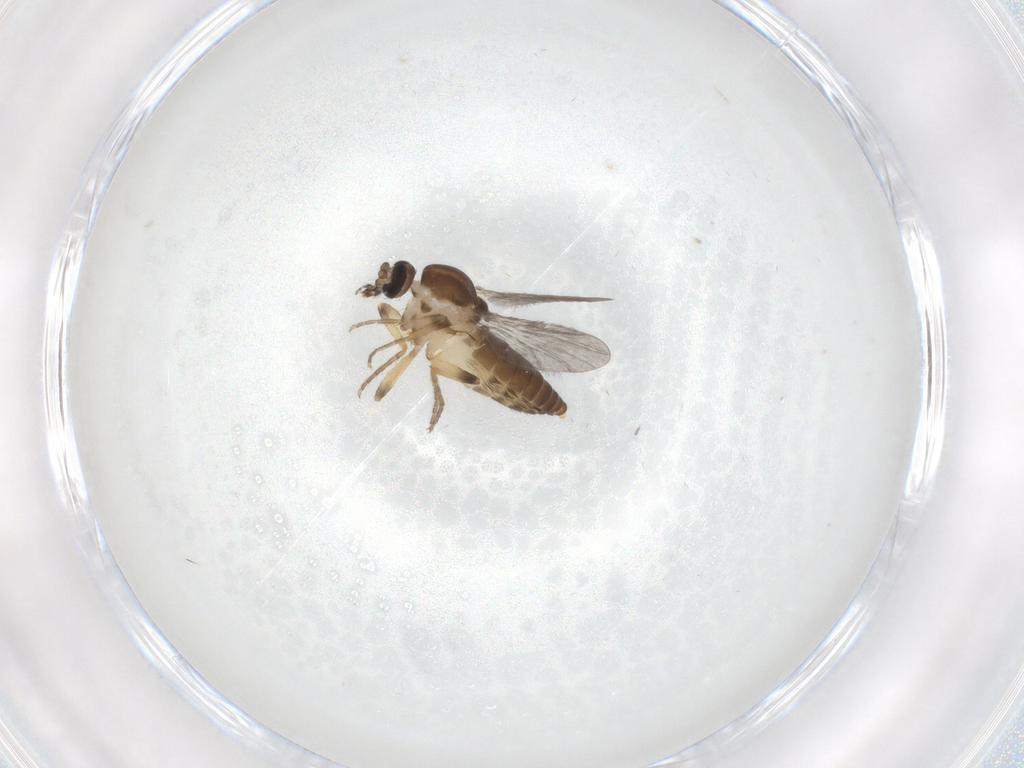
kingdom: Animalia
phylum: Arthropoda
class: Insecta
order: Diptera
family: Ceratopogonidae
